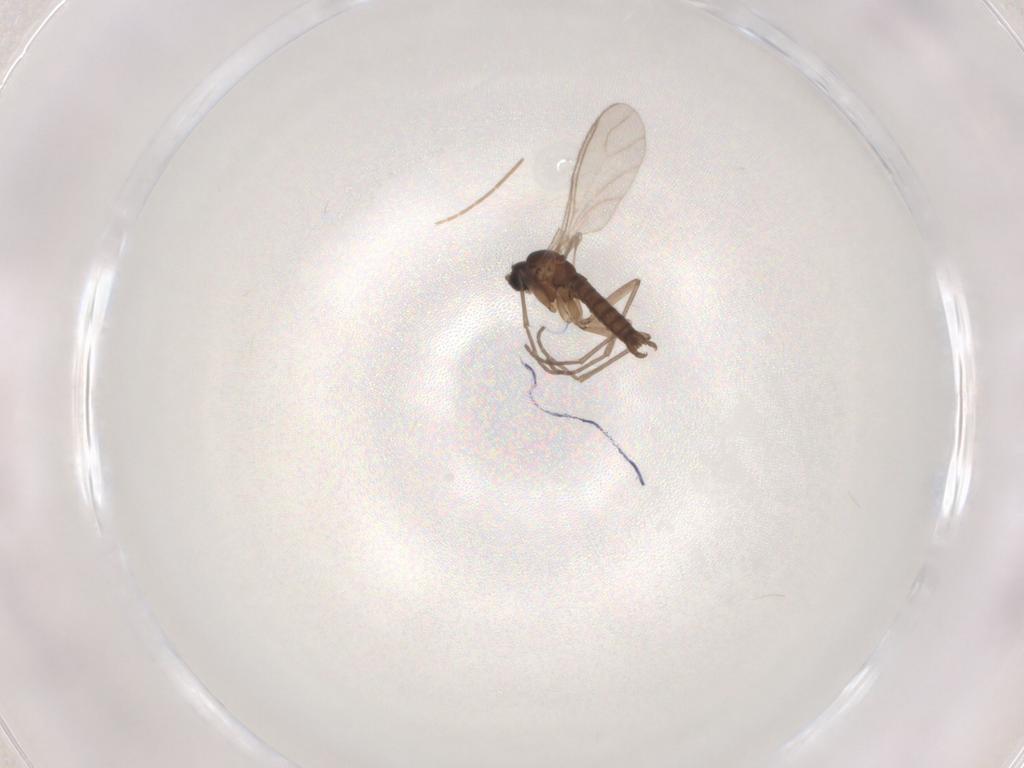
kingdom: Animalia
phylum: Arthropoda
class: Insecta
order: Diptera
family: Sciaridae
